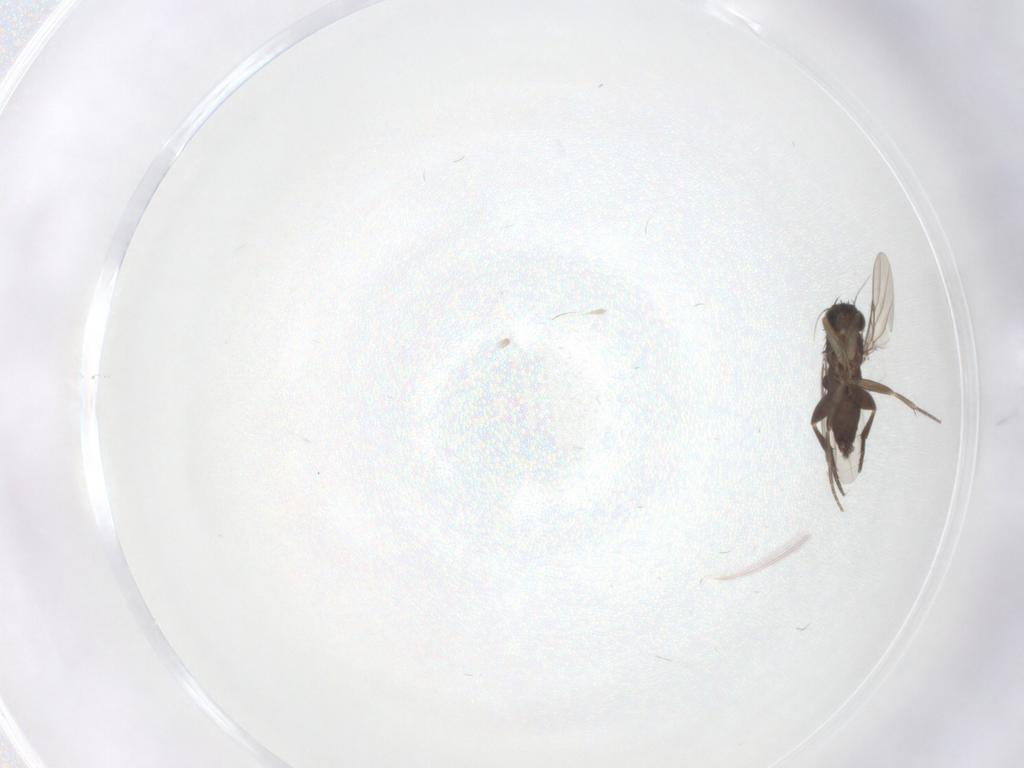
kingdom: Animalia
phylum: Arthropoda
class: Insecta
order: Diptera
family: Phoridae
